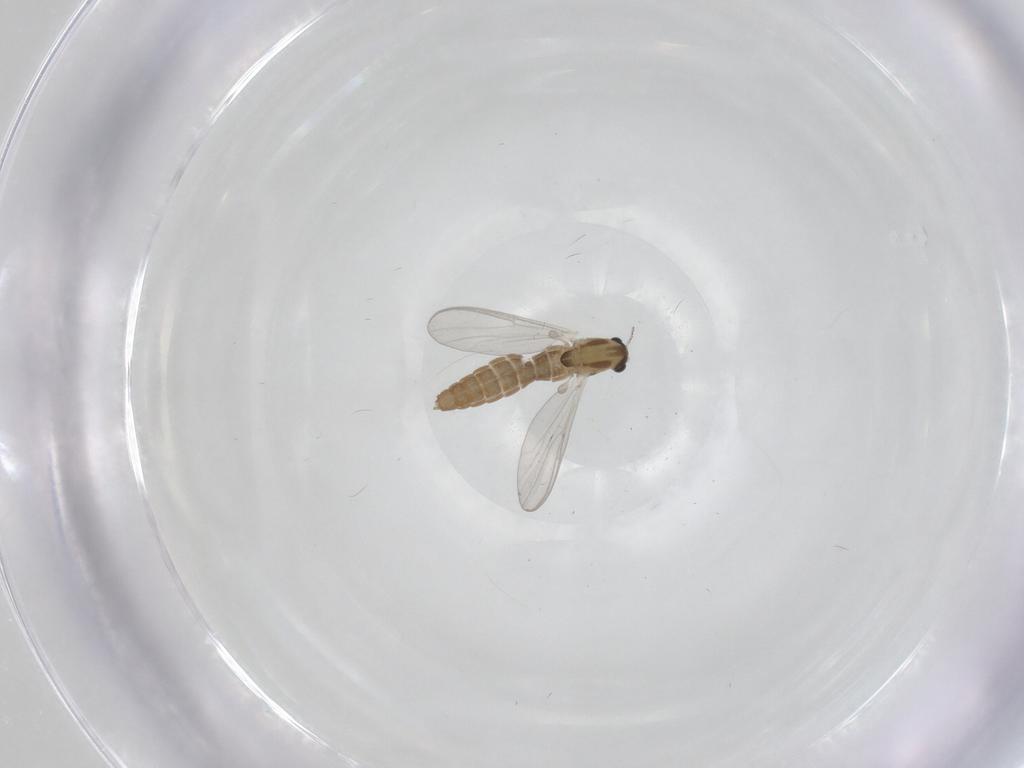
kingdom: Animalia
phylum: Arthropoda
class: Insecta
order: Diptera
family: Chironomidae
